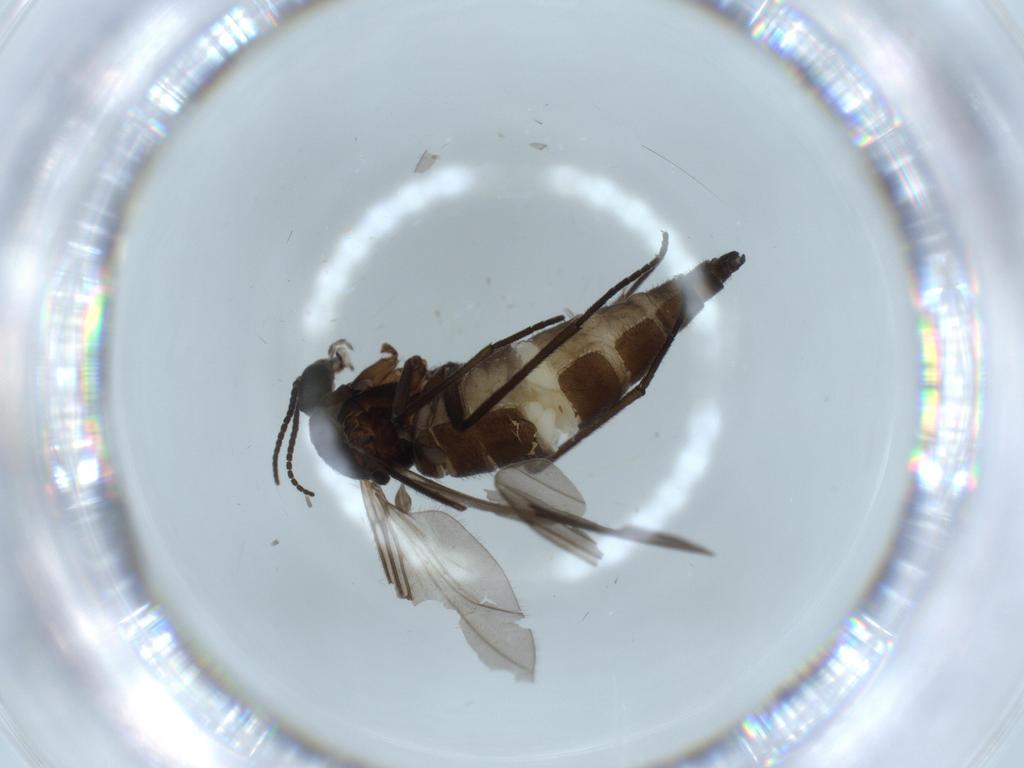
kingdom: Animalia
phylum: Arthropoda
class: Insecta
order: Diptera
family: Sciaridae
